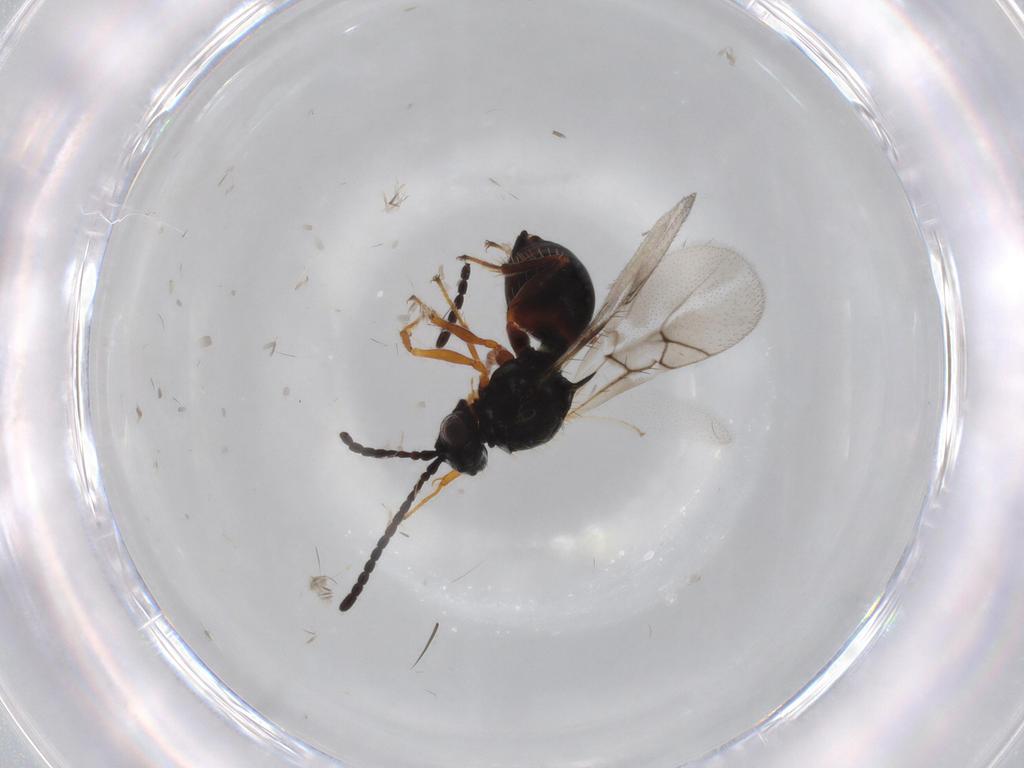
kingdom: Animalia
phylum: Arthropoda
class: Insecta
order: Hymenoptera
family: Figitidae
